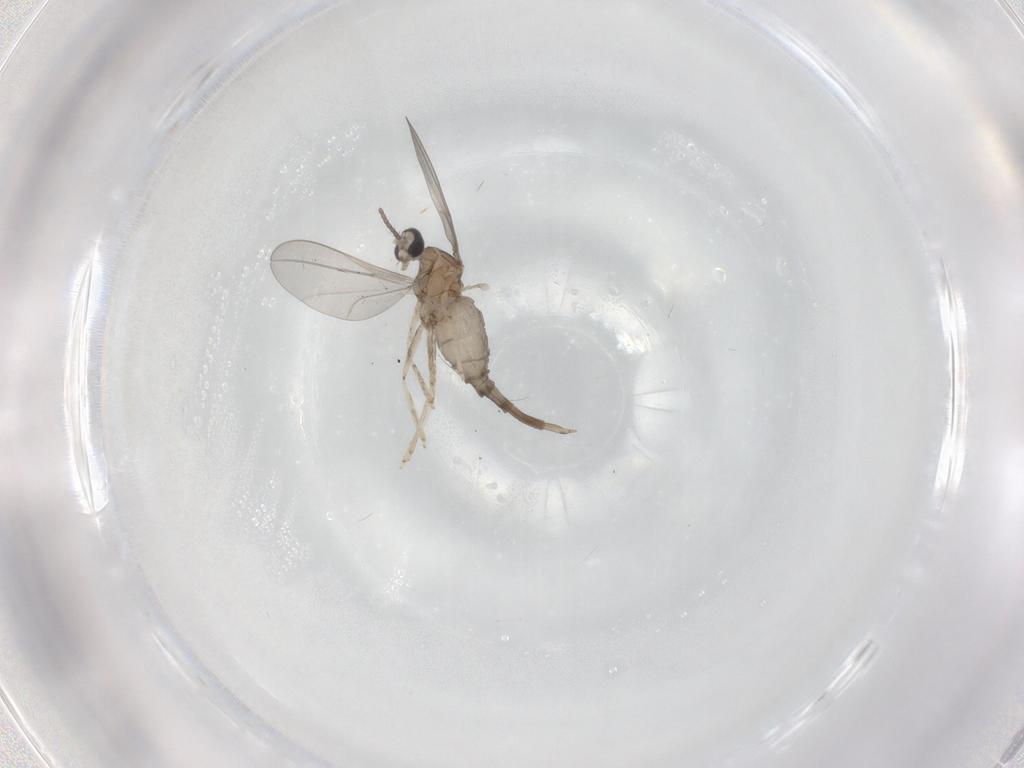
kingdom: Animalia
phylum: Arthropoda
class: Insecta
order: Diptera
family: Cecidomyiidae
